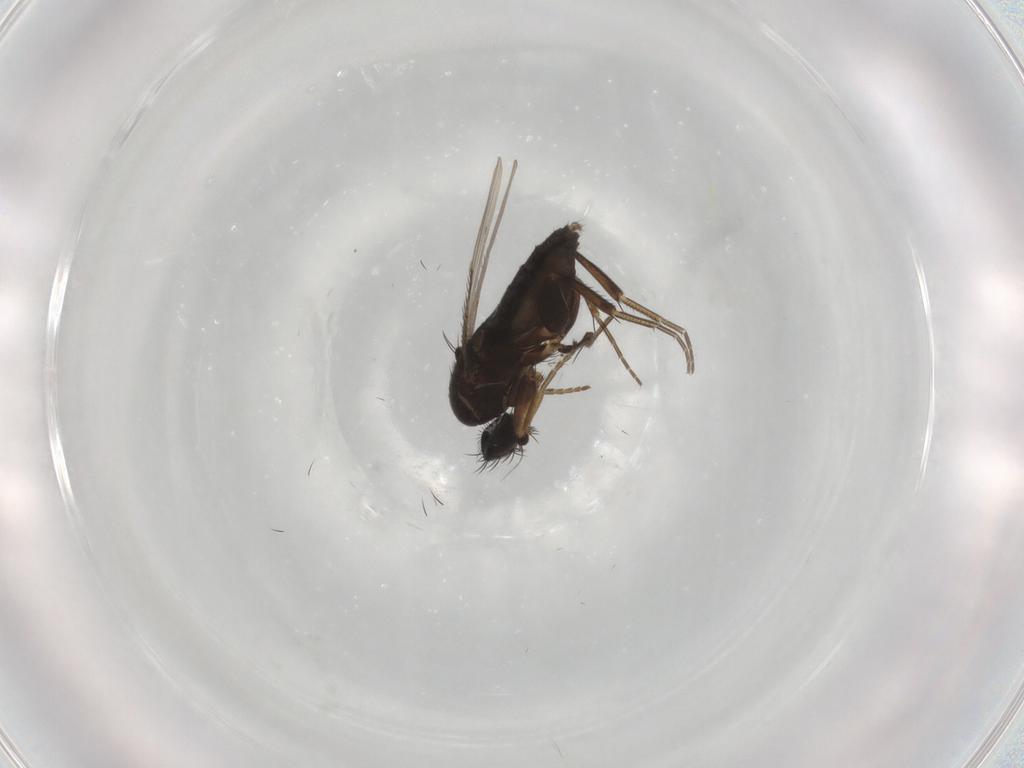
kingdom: Animalia
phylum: Arthropoda
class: Insecta
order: Diptera
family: Phoridae
